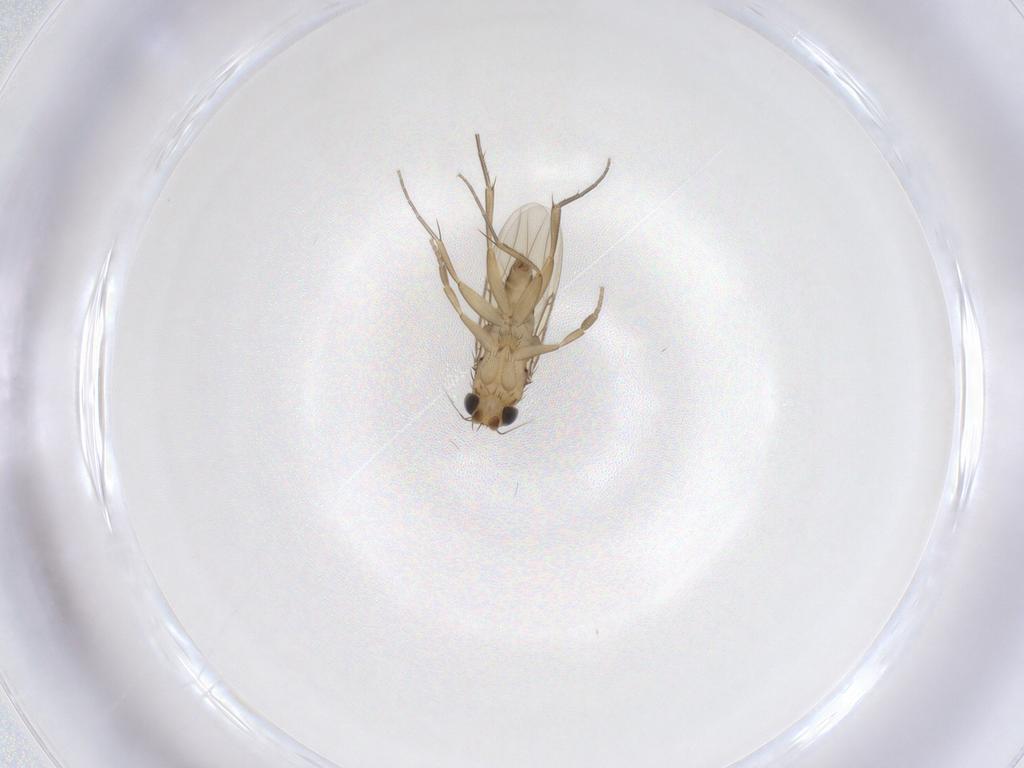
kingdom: Animalia
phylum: Arthropoda
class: Insecta
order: Diptera
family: Phoridae
